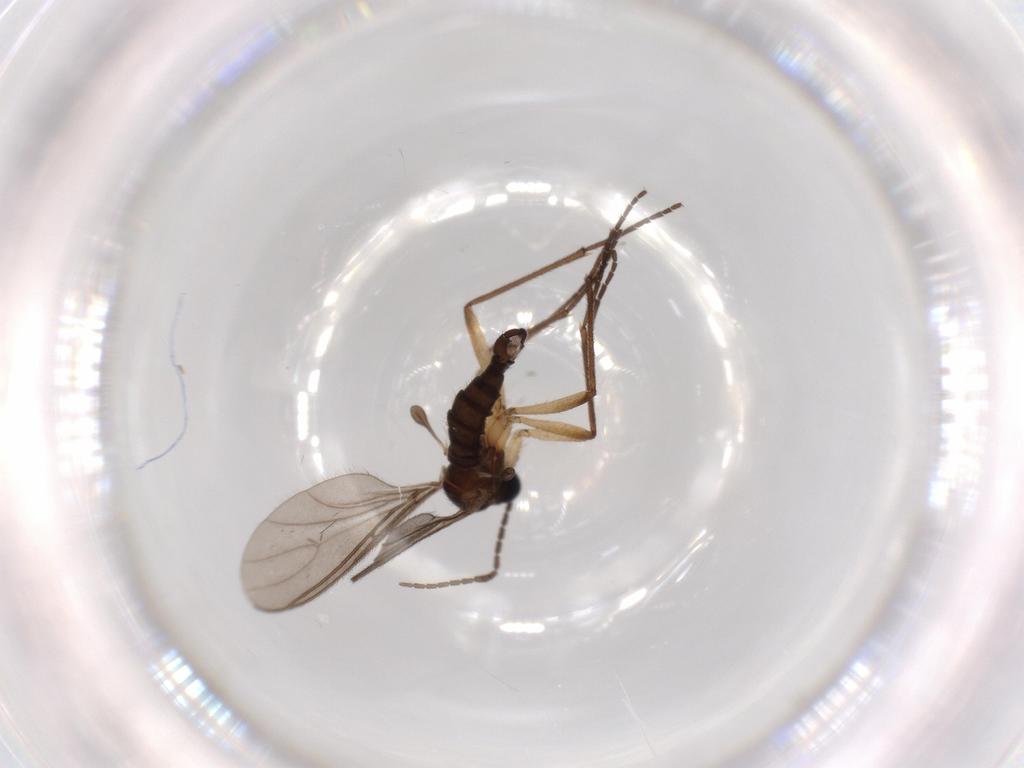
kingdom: Animalia
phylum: Arthropoda
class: Insecta
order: Diptera
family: Sciaridae
